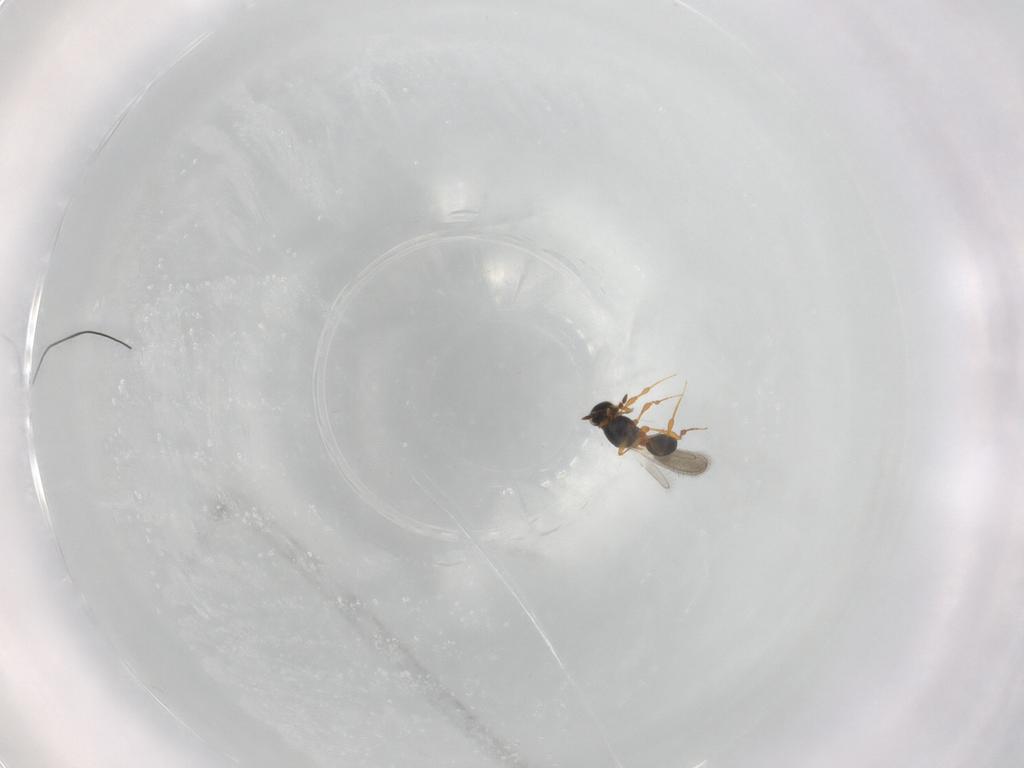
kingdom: Animalia
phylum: Arthropoda
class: Insecta
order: Hymenoptera
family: Platygastridae
